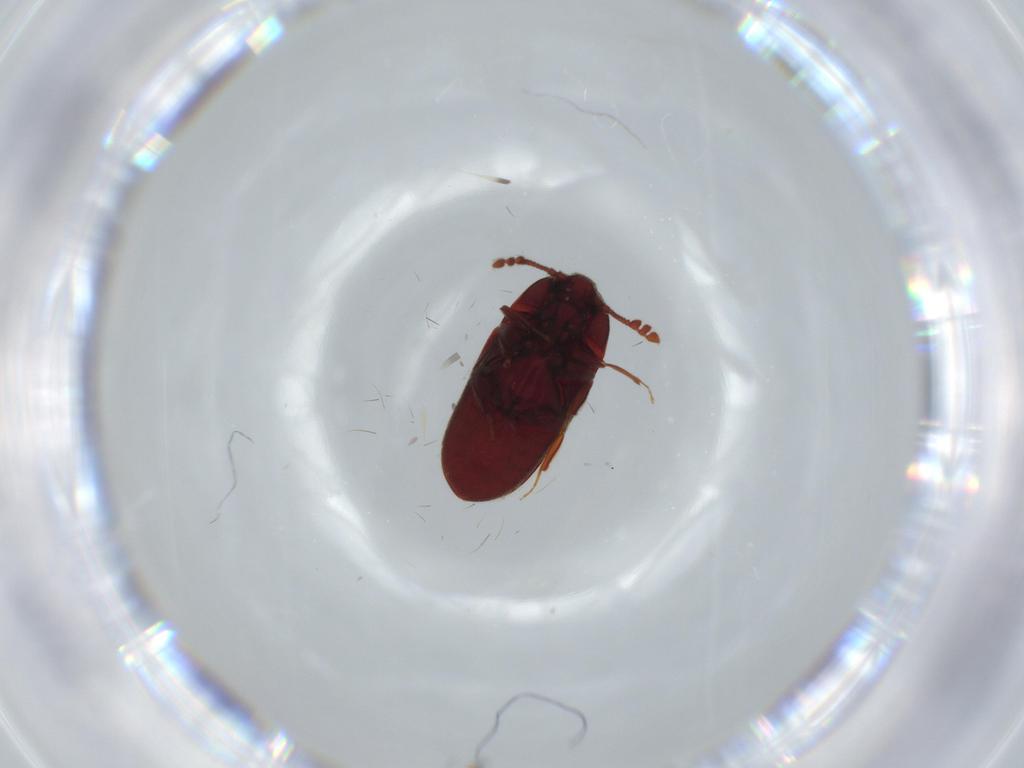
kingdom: Animalia
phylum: Arthropoda
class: Insecta
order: Coleoptera
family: Throscidae
